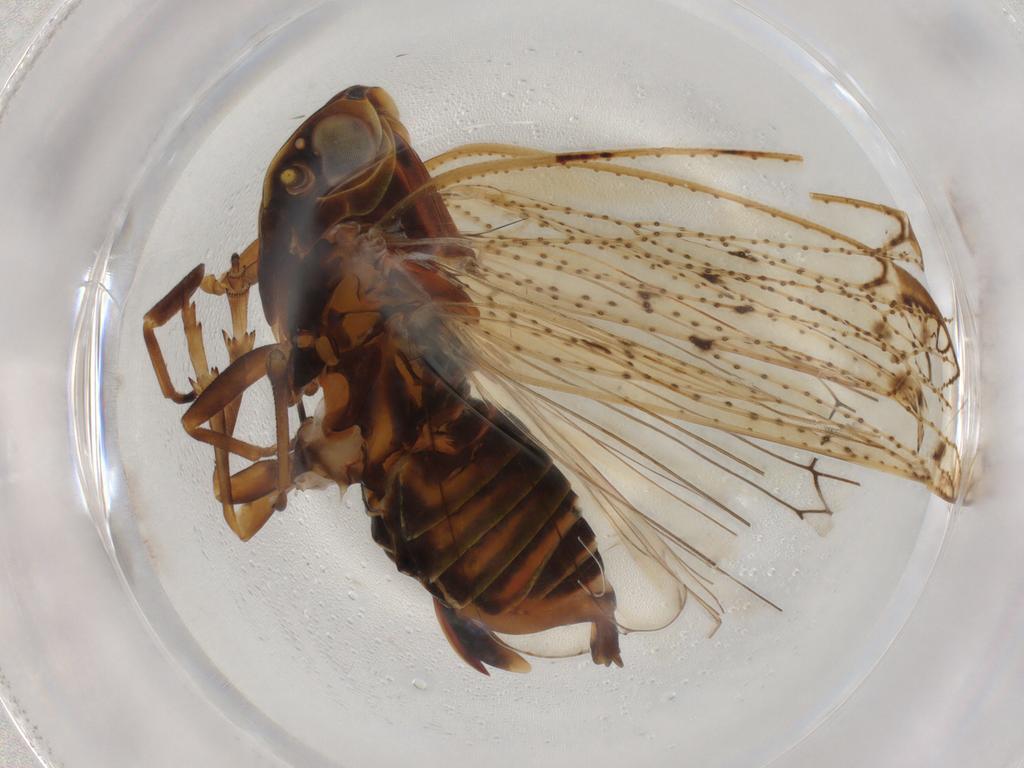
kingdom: Animalia
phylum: Arthropoda
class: Insecta
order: Hemiptera
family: Cixiidae
